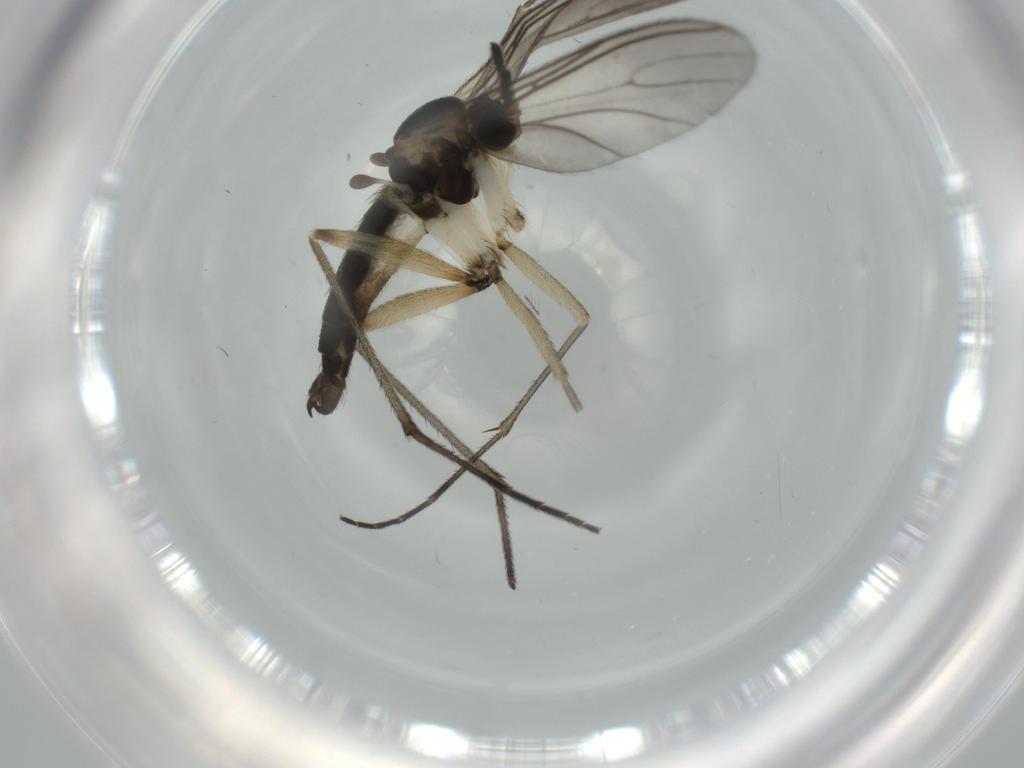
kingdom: Animalia
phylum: Arthropoda
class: Insecta
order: Diptera
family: Sciaridae
